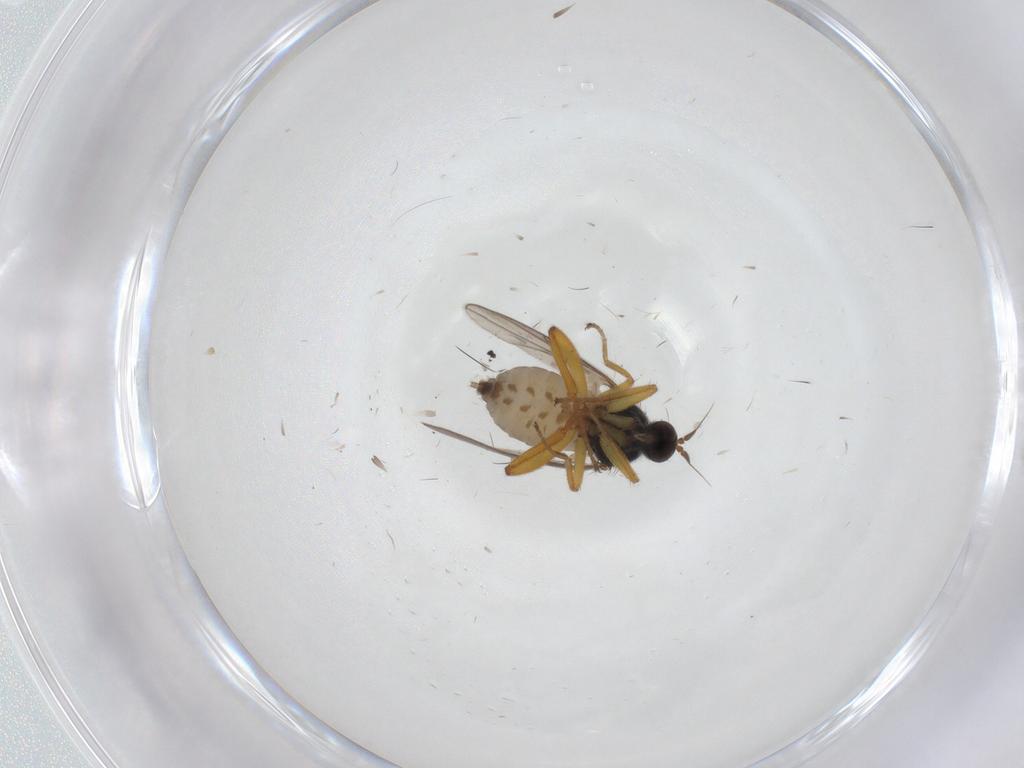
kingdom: Animalia
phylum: Arthropoda
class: Insecta
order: Diptera
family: Hybotidae
